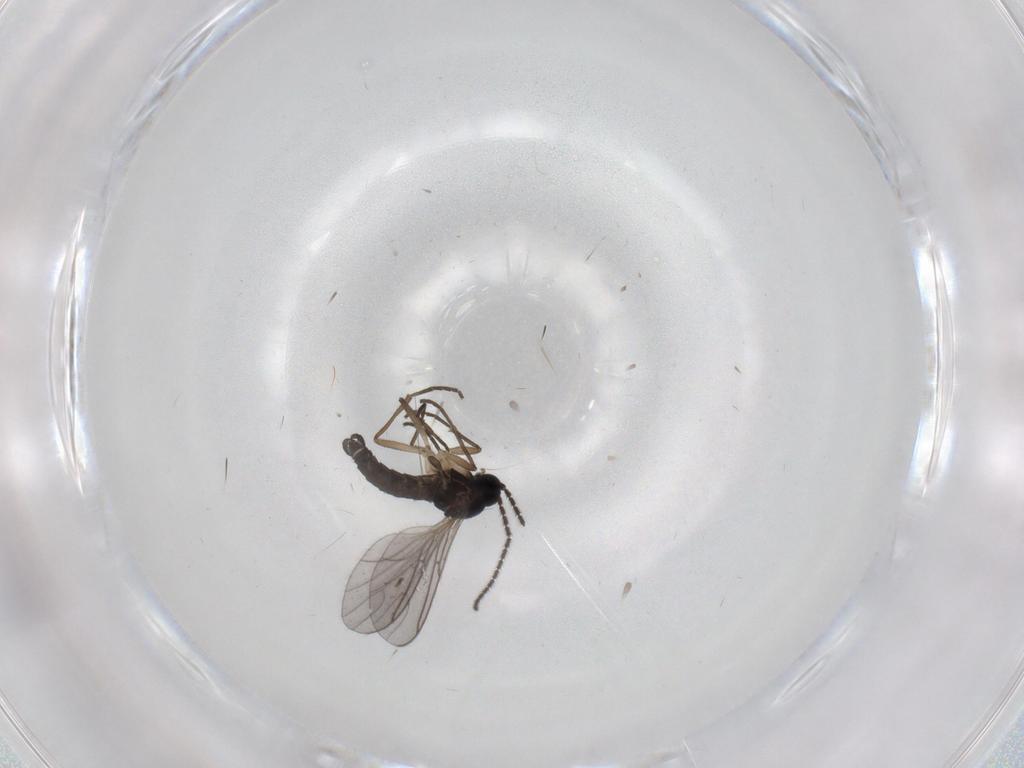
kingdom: Animalia
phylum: Arthropoda
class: Insecta
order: Diptera
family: Sciaridae
